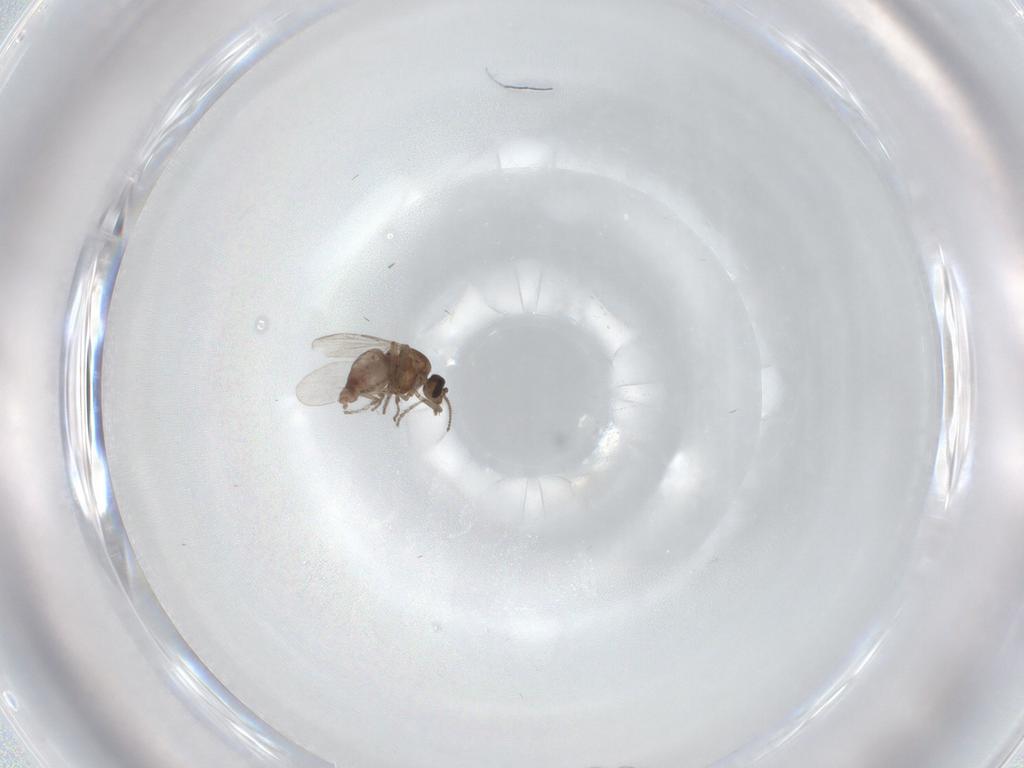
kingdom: Animalia
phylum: Arthropoda
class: Insecta
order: Diptera
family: Ceratopogonidae
